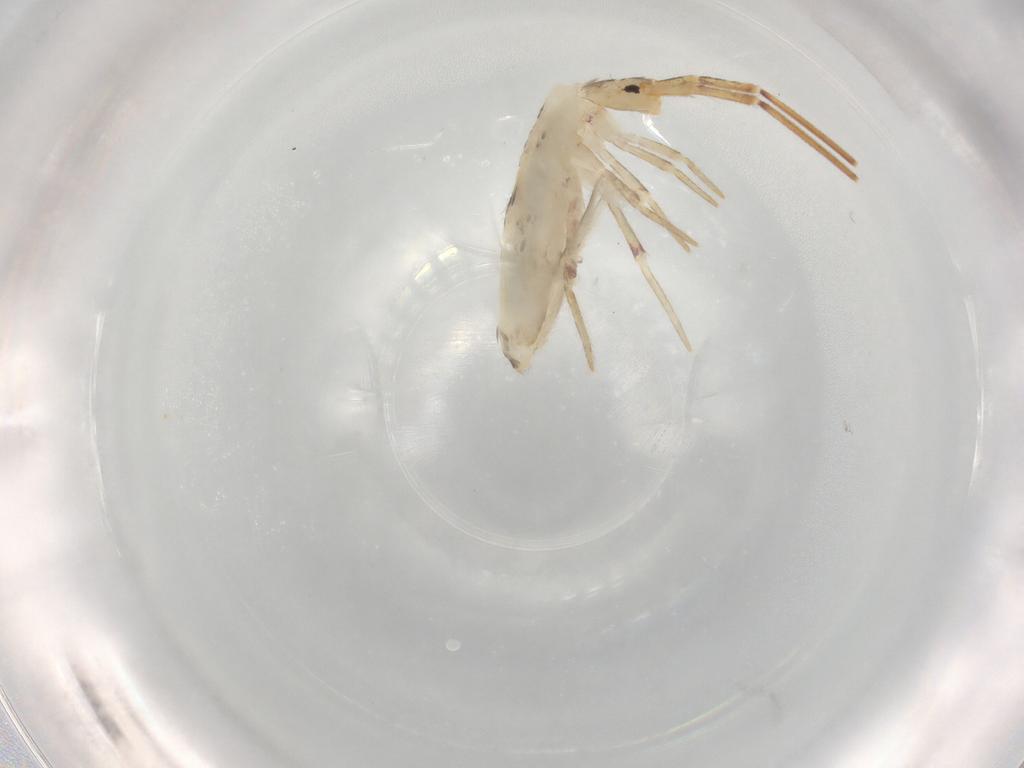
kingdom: Animalia
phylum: Arthropoda
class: Collembola
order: Poduromorpha
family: Hypogastruridae
